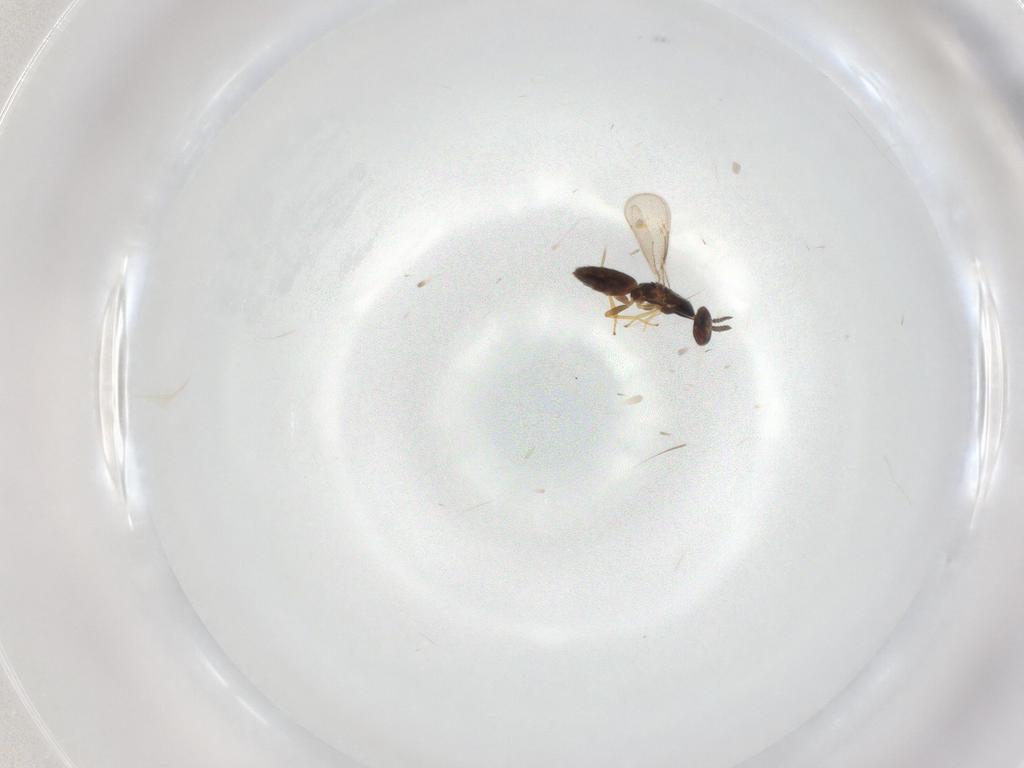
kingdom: Animalia
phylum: Arthropoda
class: Insecta
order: Hymenoptera
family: Eulophidae
